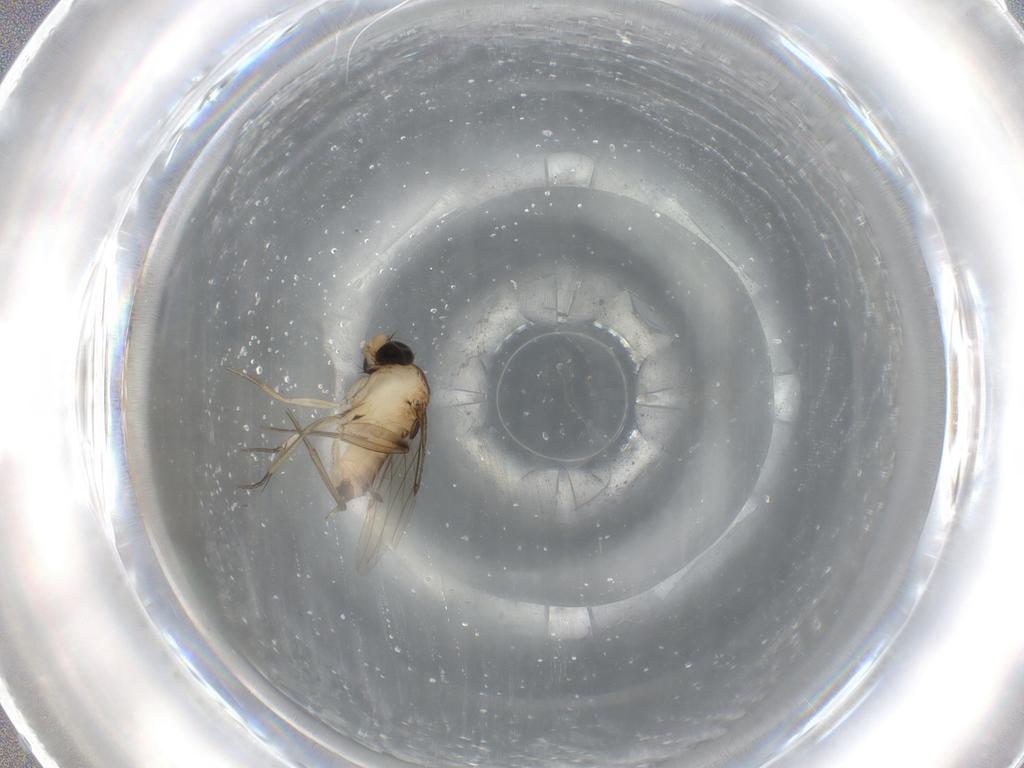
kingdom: Animalia
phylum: Arthropoda
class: Insecta
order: Diptera
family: Phoridae
